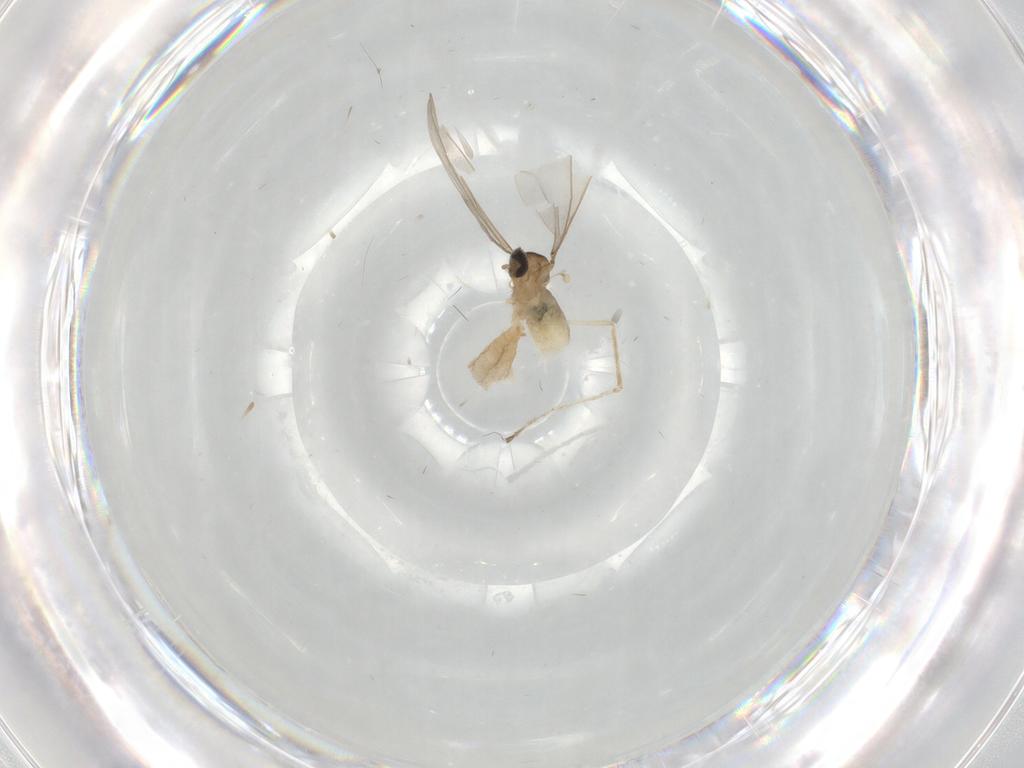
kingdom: Animalia
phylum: Arthropoda
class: Insecta
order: Diptera
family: Cecidomyiidae
